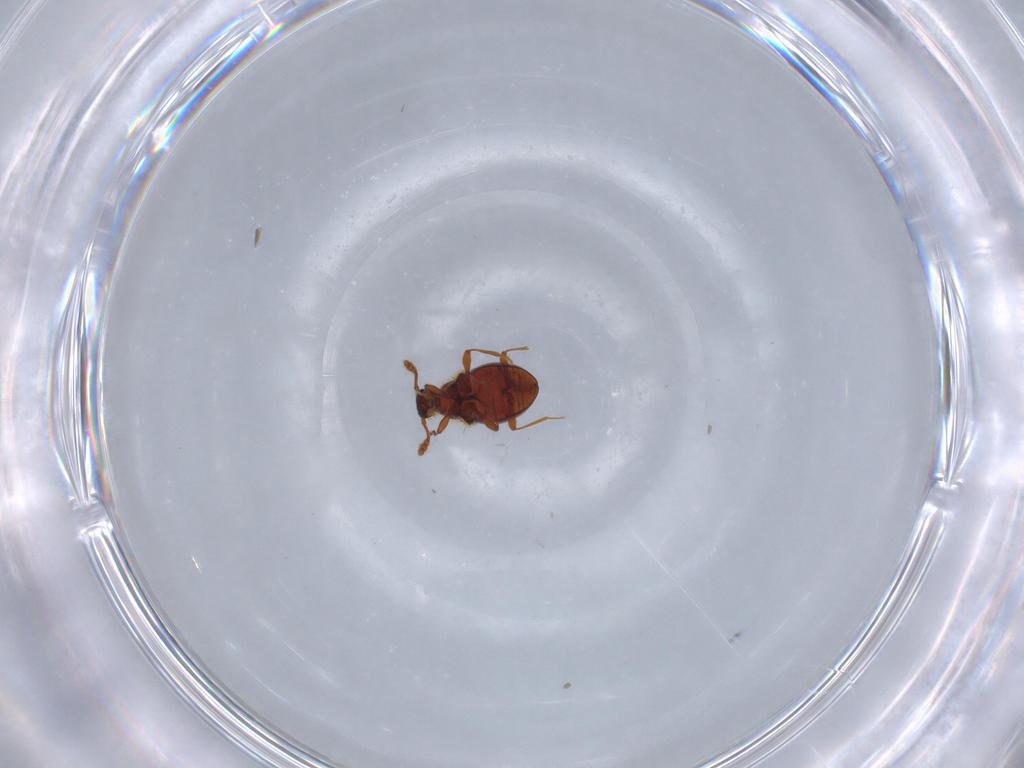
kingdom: Animalia
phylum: Arthropoda
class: Insecta
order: Coleoptera
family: Staphylinidae
